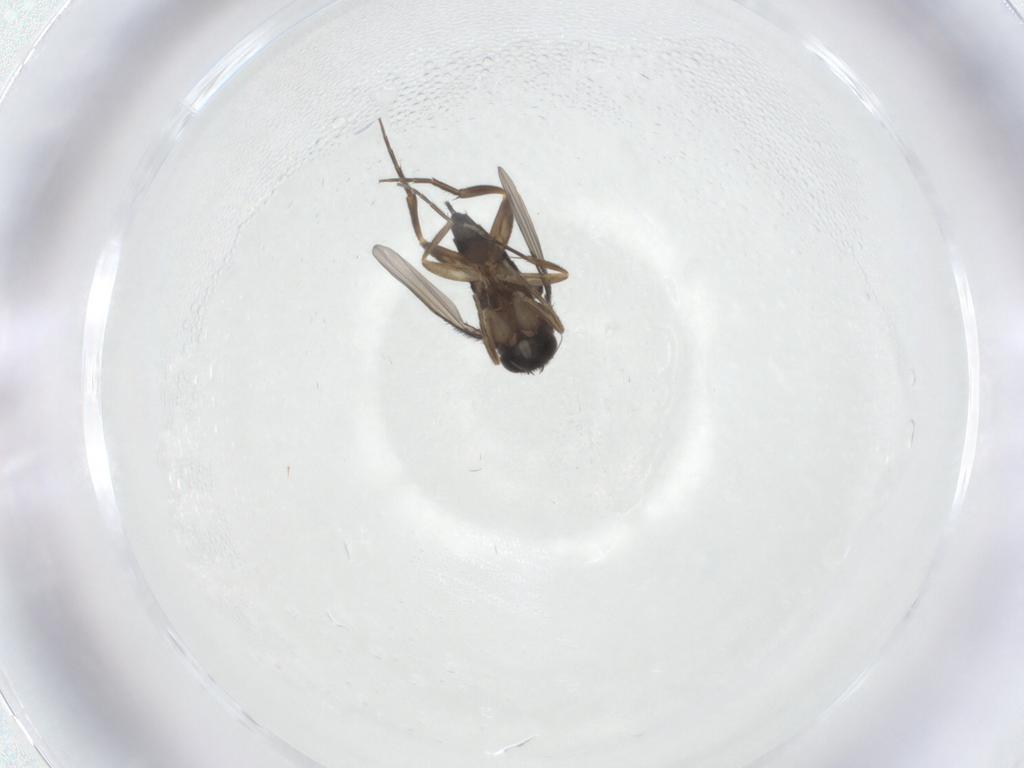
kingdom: Animalia
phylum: Arthropoda
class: Insecta
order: Diptera
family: Phoridae
